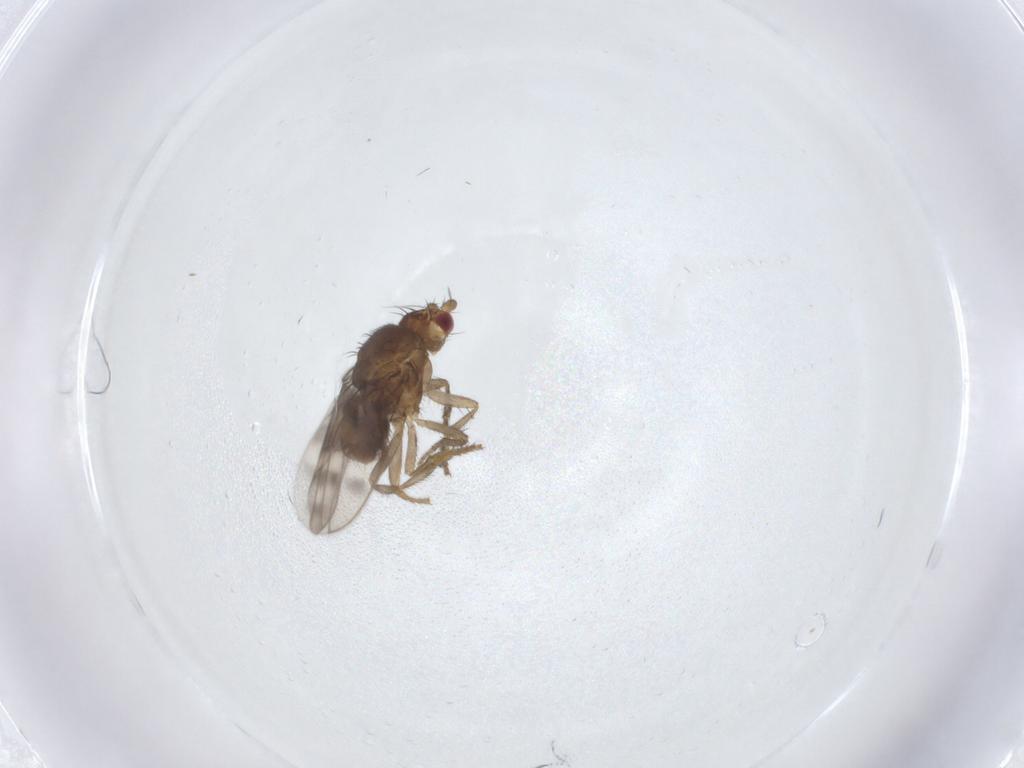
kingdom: Animalia
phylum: Arthropoda
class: Insecta
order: Diptera
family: Sphaeroceridae
